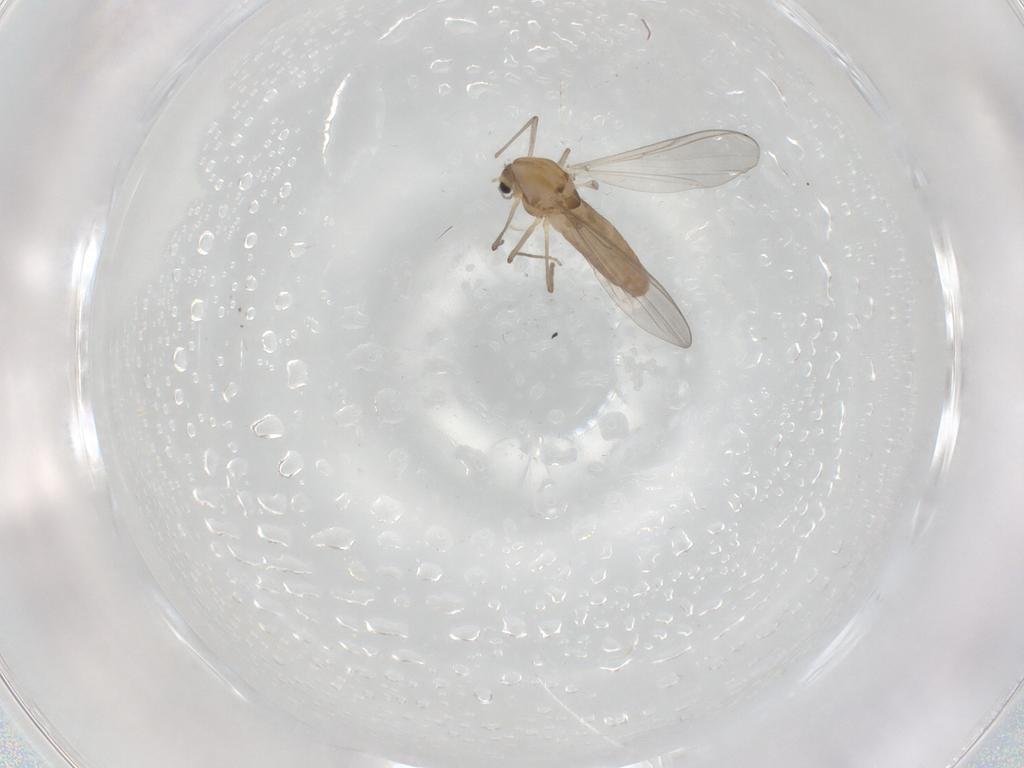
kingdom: Animalia
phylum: Arthropoda
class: Insecta
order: Diptera
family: Chironomidae
